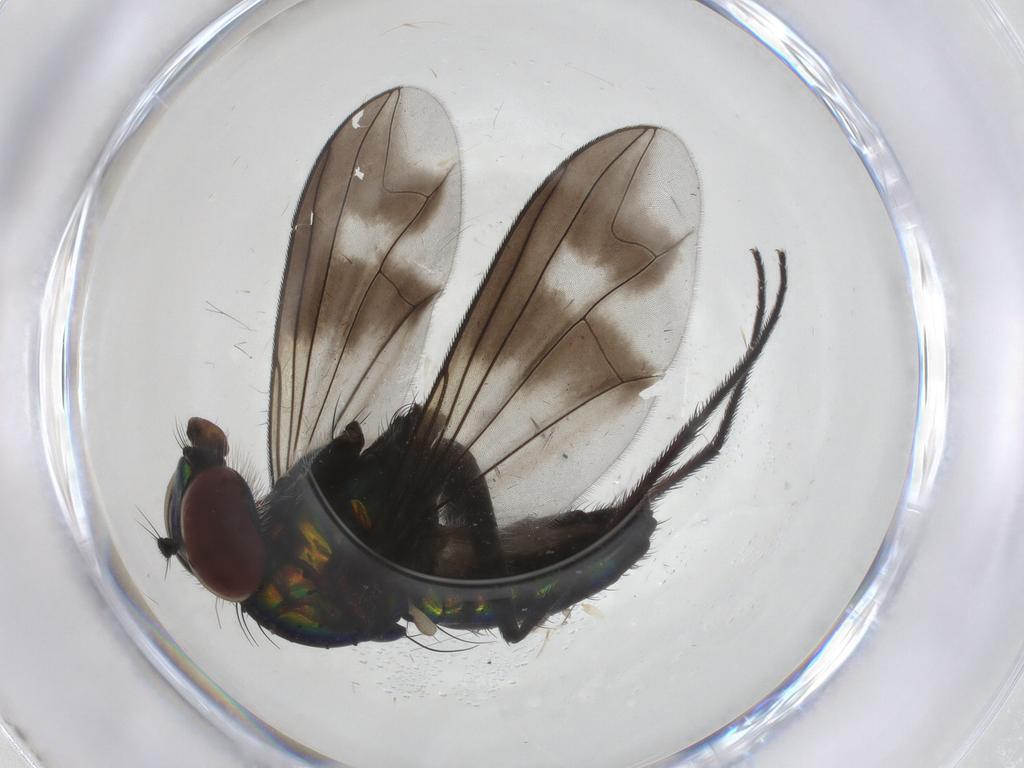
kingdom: Animalia
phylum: Arthropoda
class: Insecta
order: Diptera
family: Dolichopodidae
